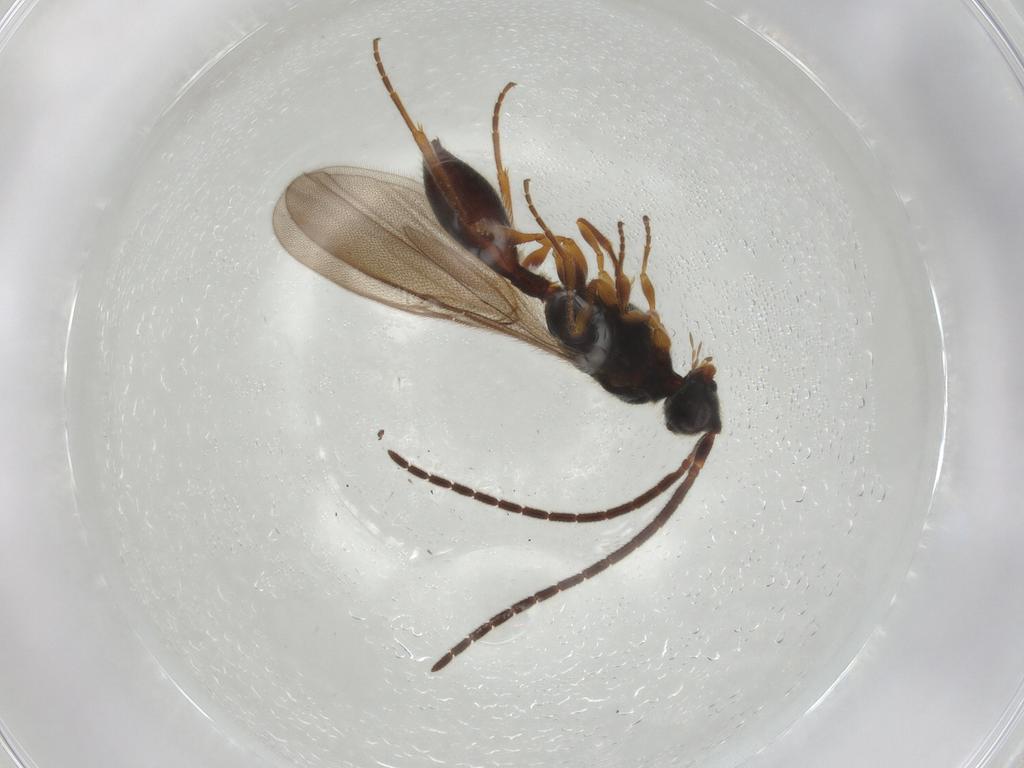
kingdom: Animalia
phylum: Arthropoda
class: Insecta
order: Hymenoptera
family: Diapriidae
